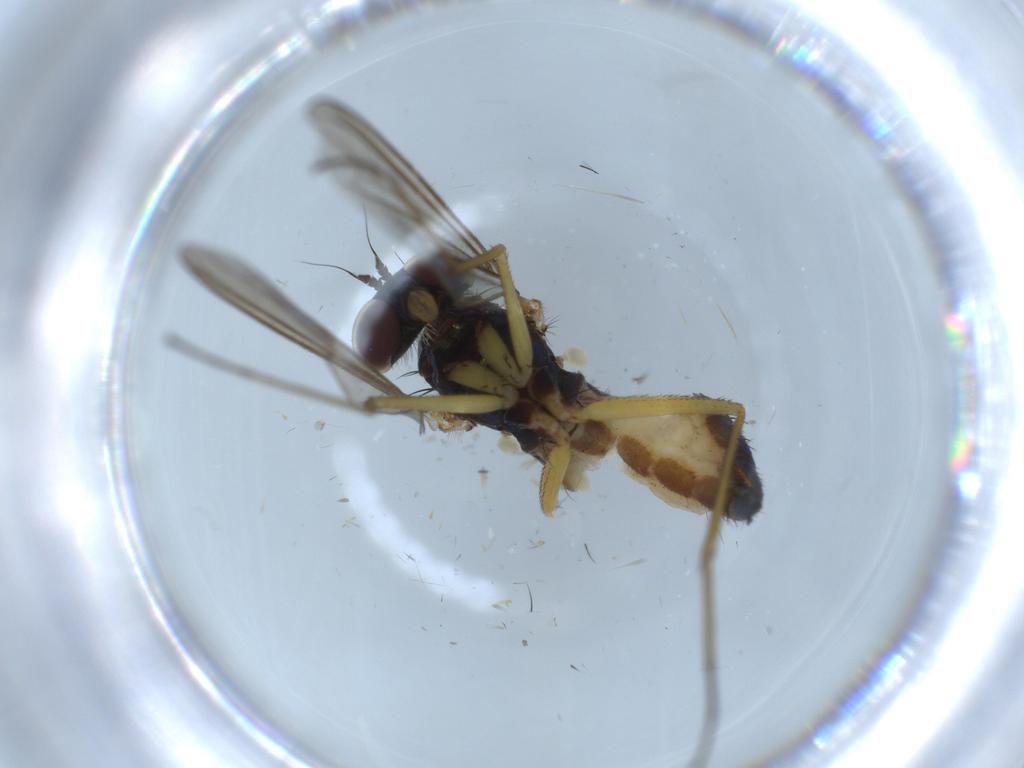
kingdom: Animalia
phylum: Arthropoda
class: Insecta
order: Diptera
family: Dolichopodidae
